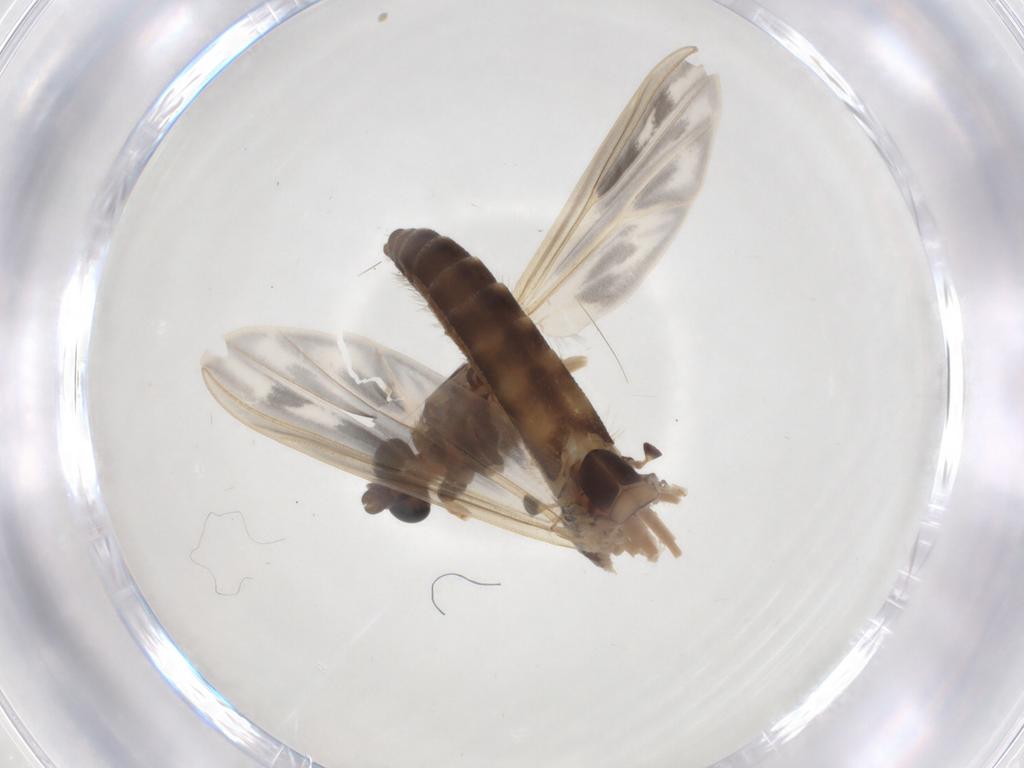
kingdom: Animalia
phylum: Arthropoda
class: Insecta
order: Diptera
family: Chironomidae
